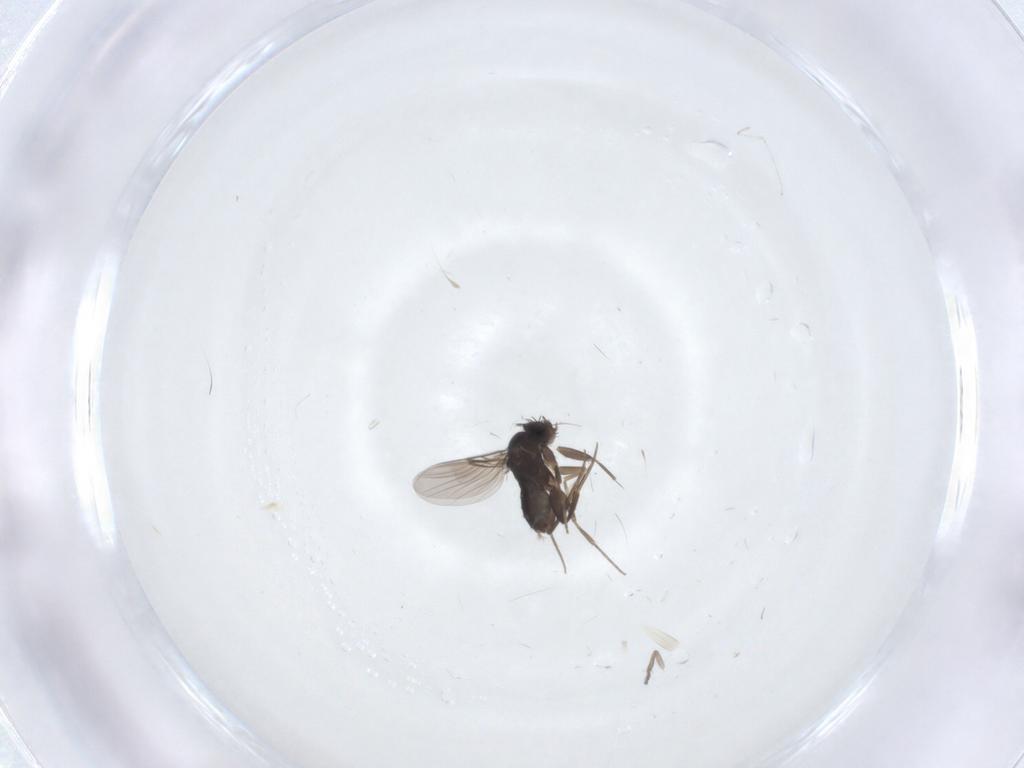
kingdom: Animalia
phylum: Arthropoda
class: Insecta
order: Diptera
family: Phoridae
